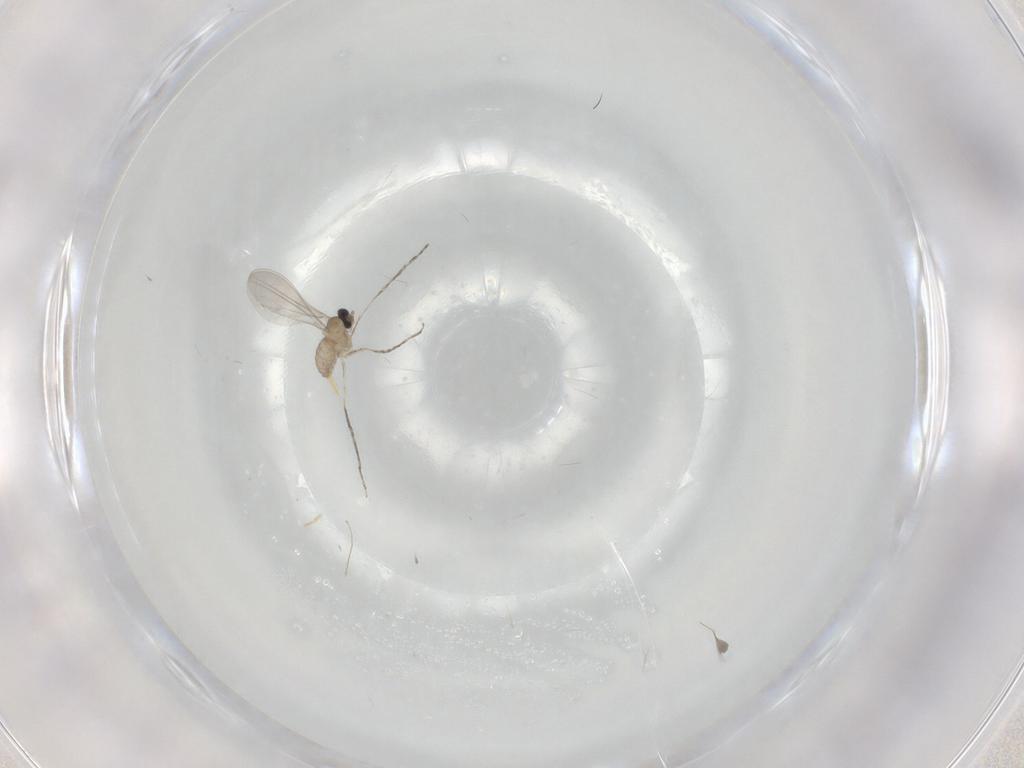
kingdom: Animalia
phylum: Arthropoda
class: Insecta
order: Diptera
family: Cecidomyiidae
